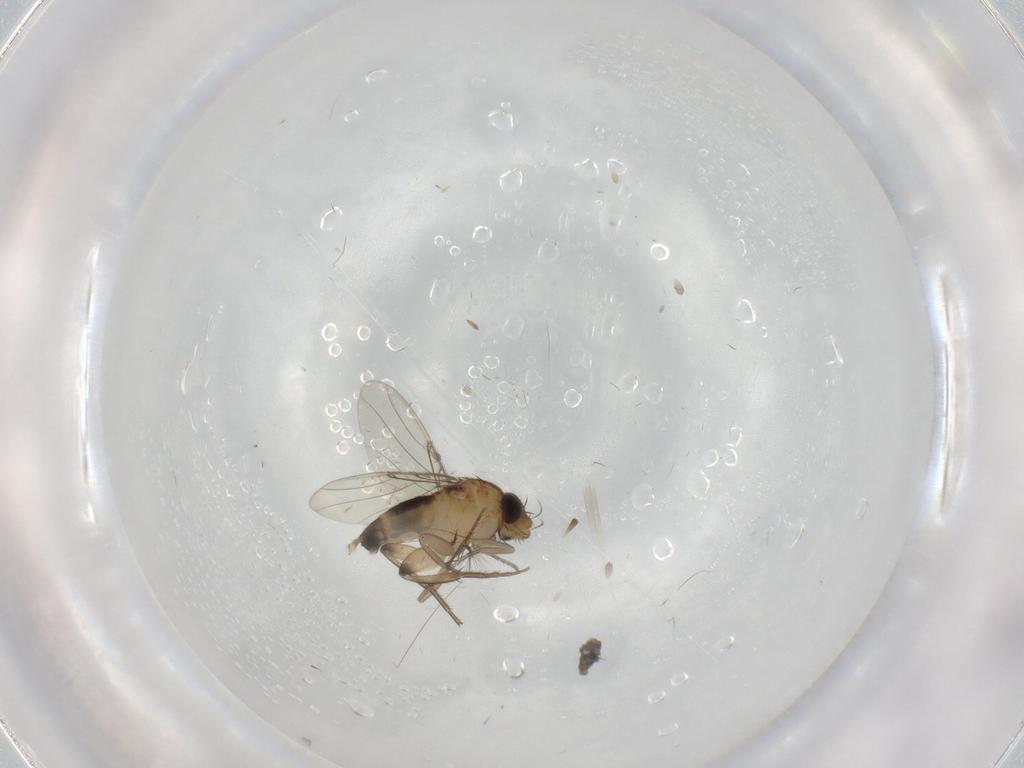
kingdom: Animalia
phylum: Arthropoda
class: Insecta
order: Diptera
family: Phoridae
